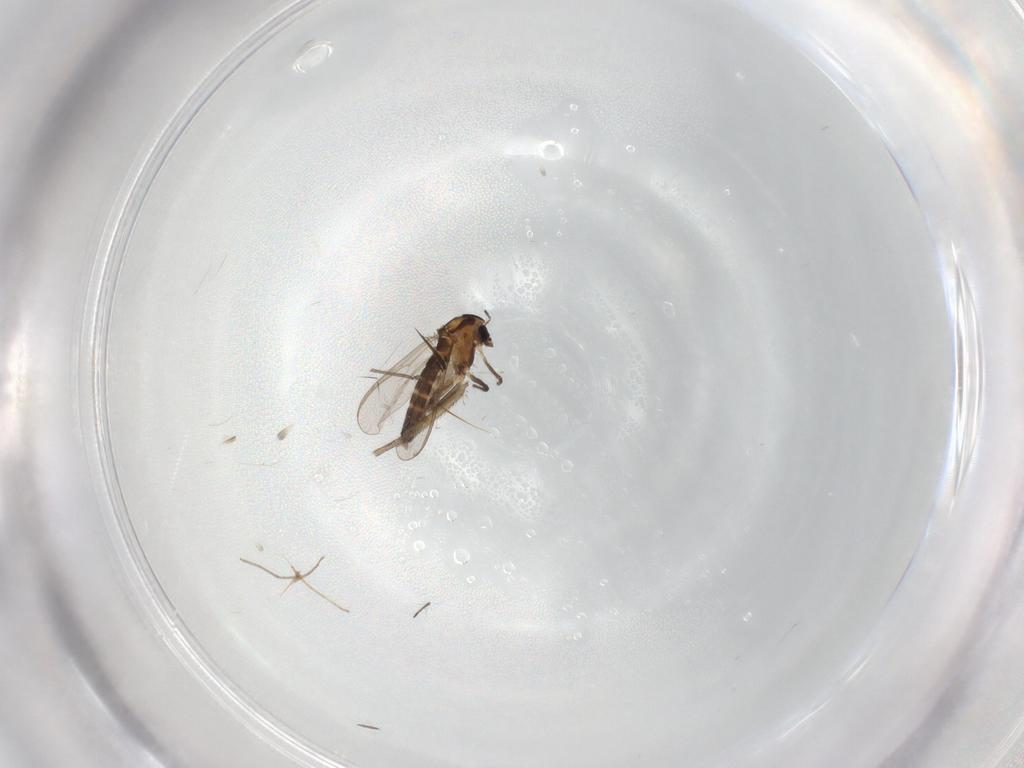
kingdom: Animalia
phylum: Arthropoda
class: Insecta
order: Diptera
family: Chironomidae
